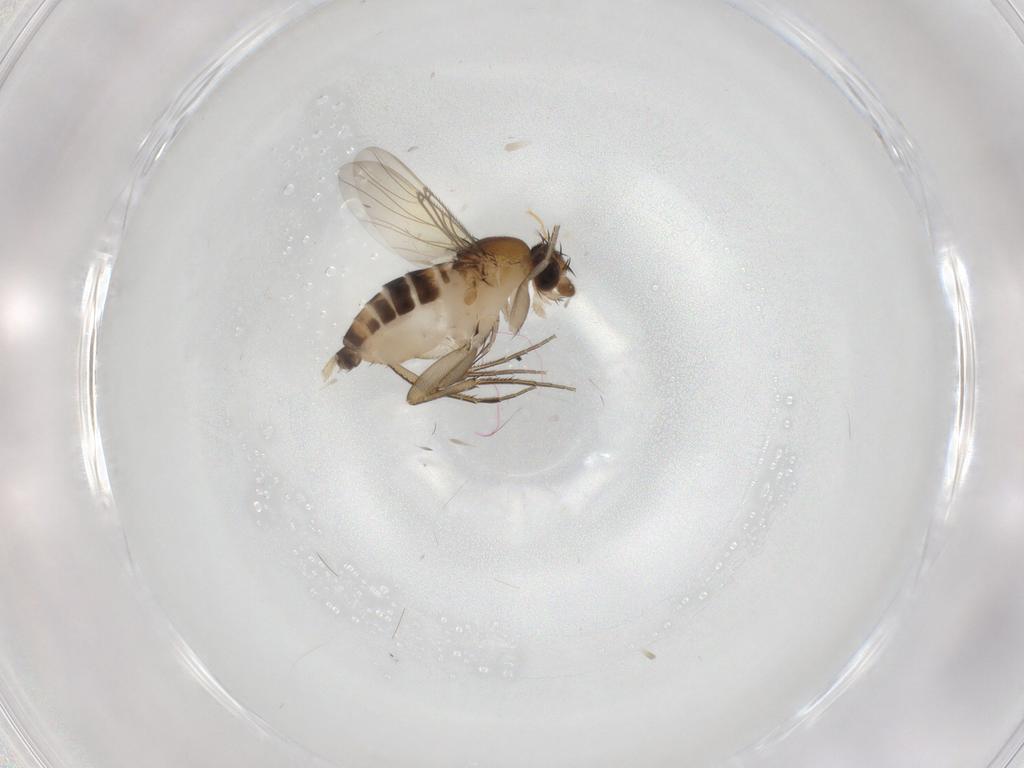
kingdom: Animalia
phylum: Arthropoda
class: Insecta
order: Diptera
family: Phoridae
